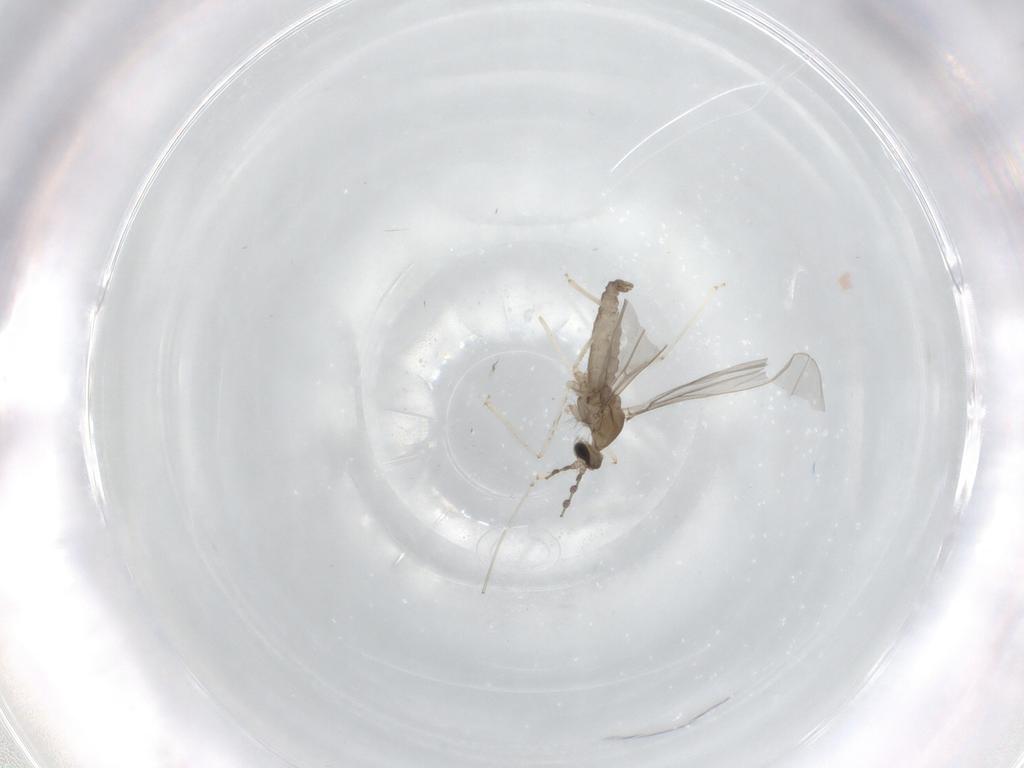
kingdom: Animalia
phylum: Arthropoda
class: Insecta
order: Diptera
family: Cecidomyiidae
